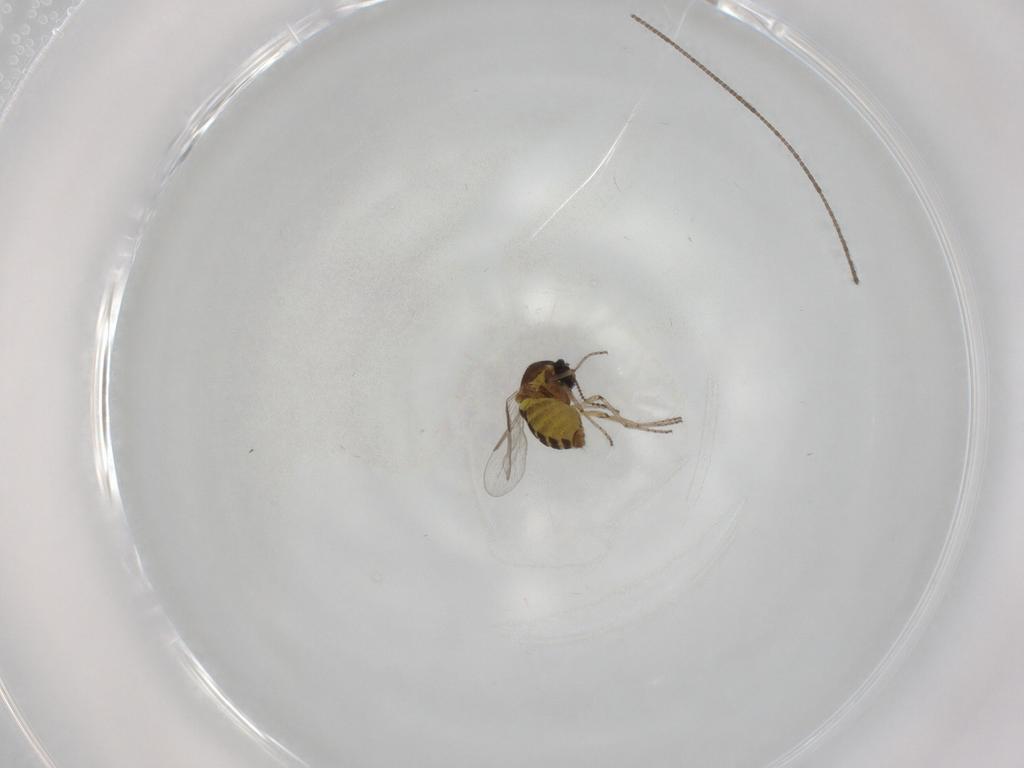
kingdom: Animalia
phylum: Arthropoda
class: Insecta
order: Diptera
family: Ceratopogonidae
